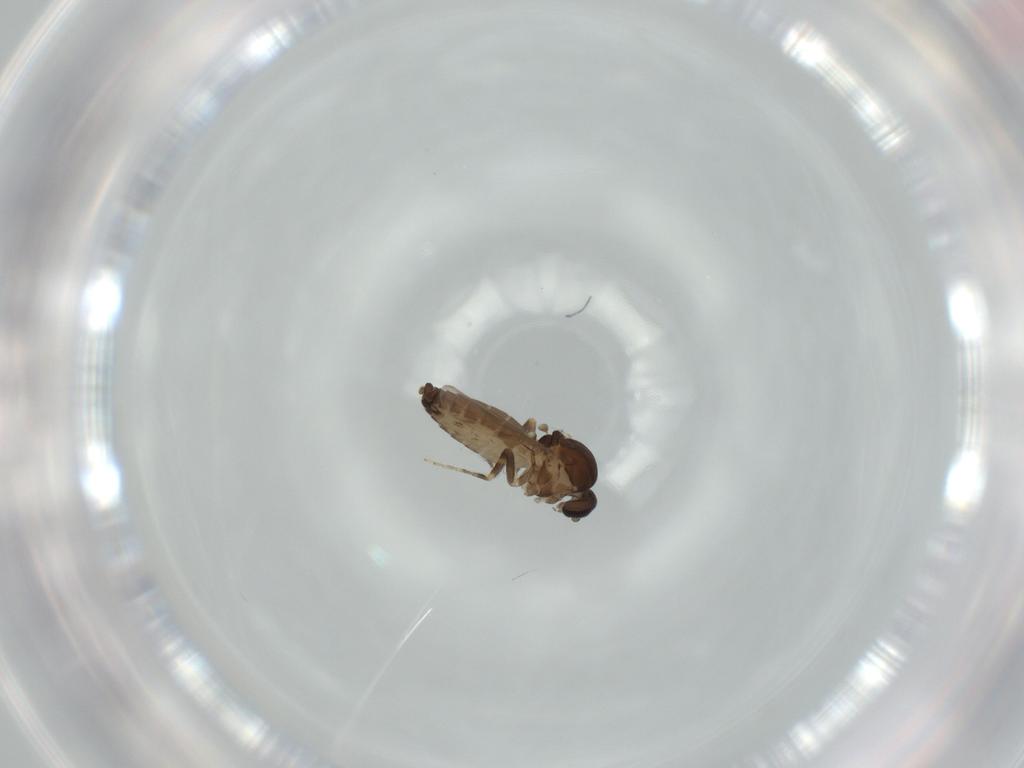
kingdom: Animalia
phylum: Arthropoda
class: Insecta
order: Diptera
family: Ceratopogonidae
